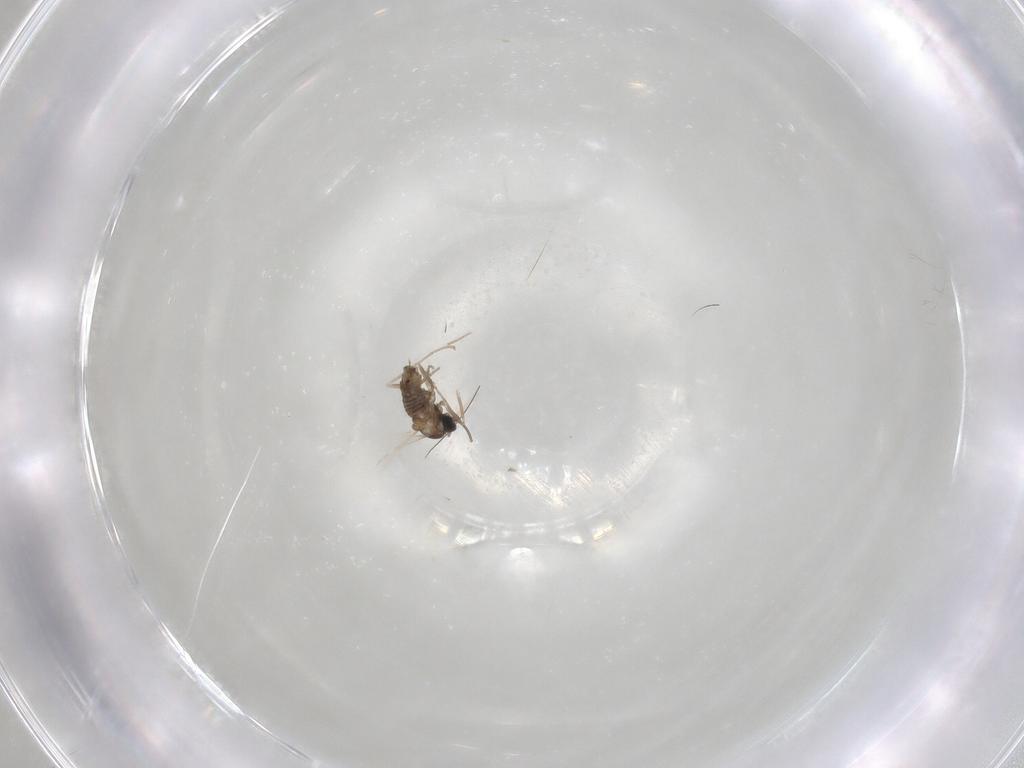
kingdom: Animalia
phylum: Arthropoda
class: Insecta
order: Diptera
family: Cecidomyiidae
